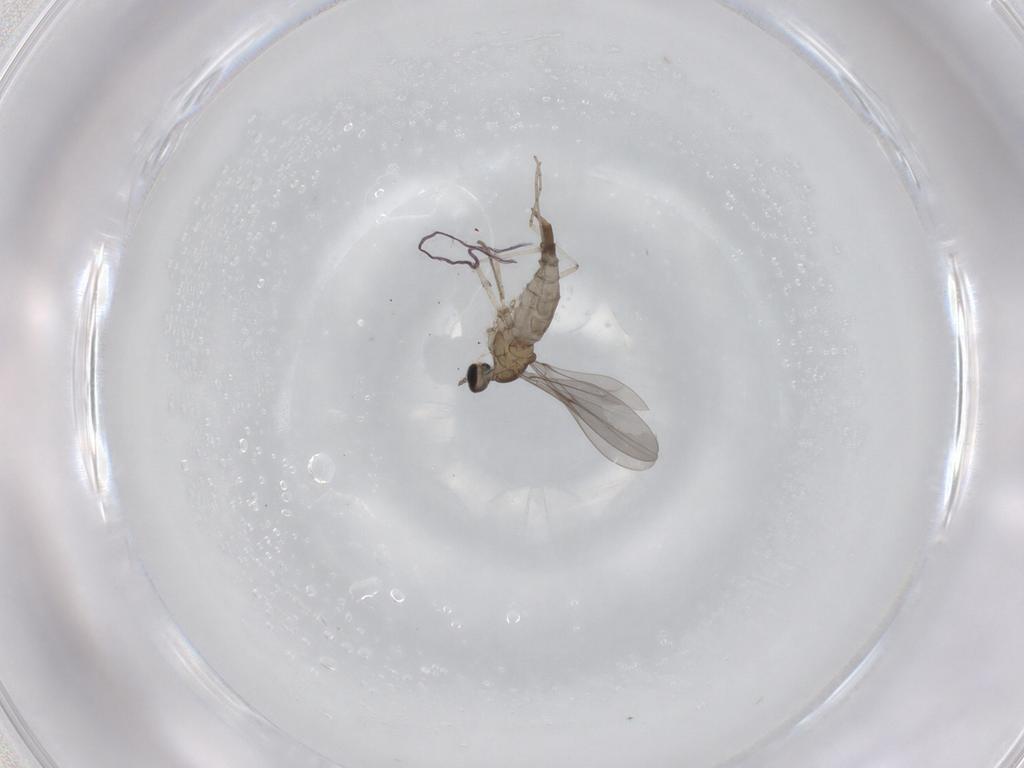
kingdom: Animalia
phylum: Arthropoda
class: Insecta
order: Diptera
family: Cecidomyiidae
